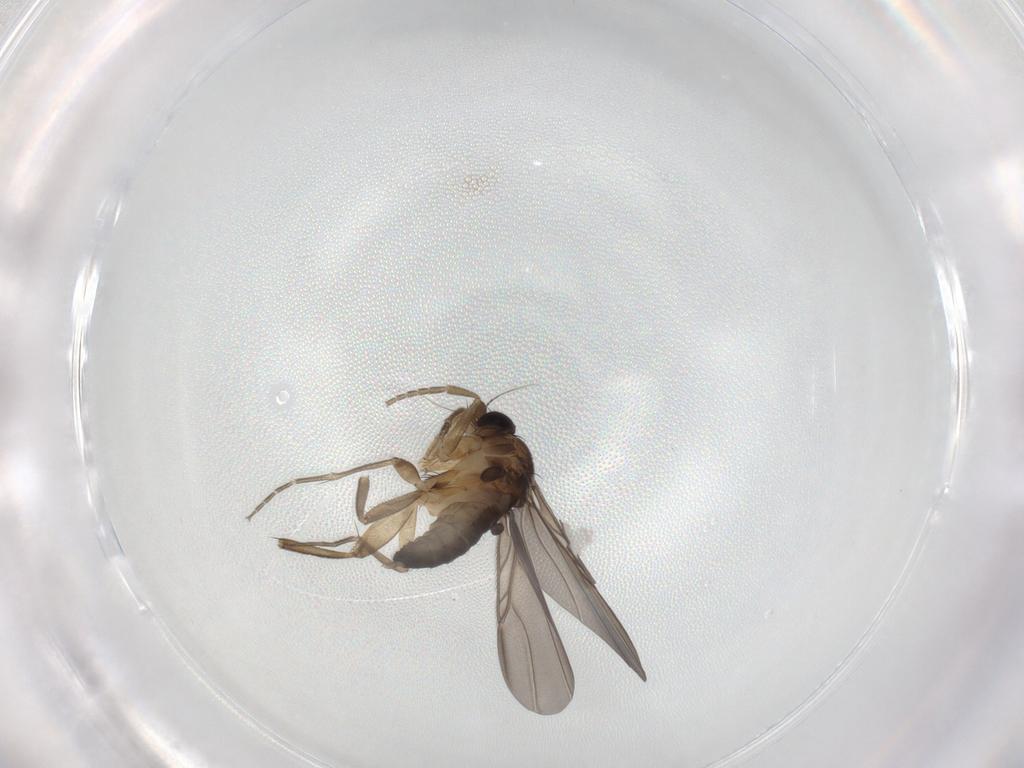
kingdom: Animalia
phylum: Arthropoda
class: Insecta
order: Diptera
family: Phoridae
